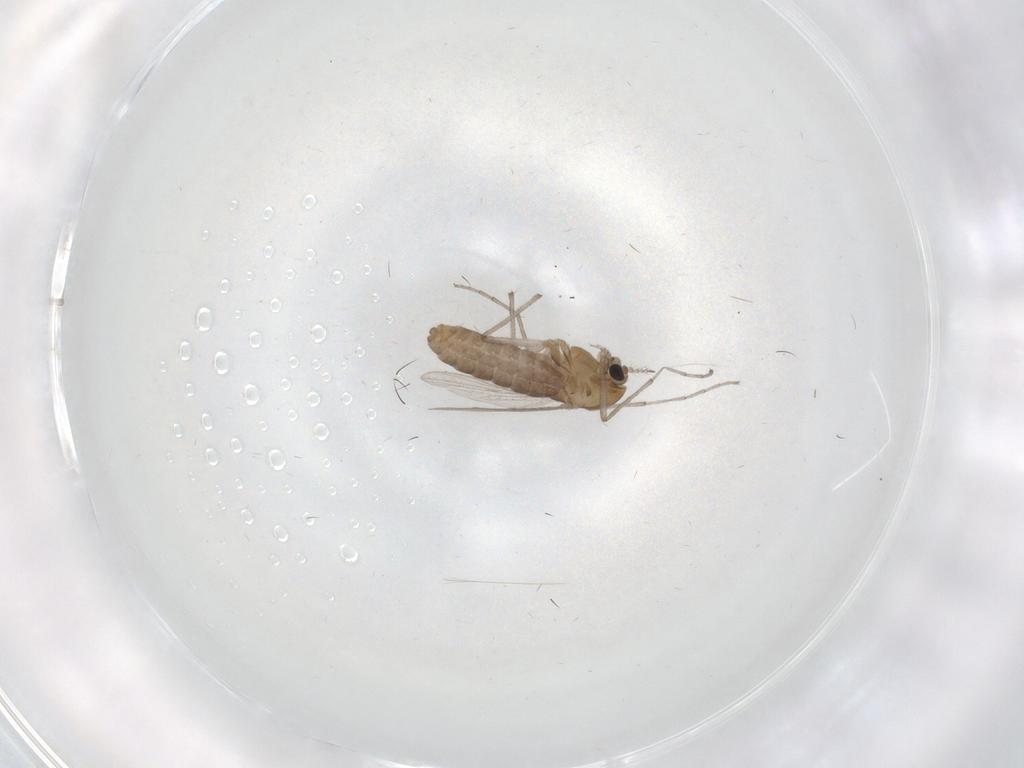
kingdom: Animalia
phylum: Arthropoda
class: Insecta
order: Diptera
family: Chironomidae
